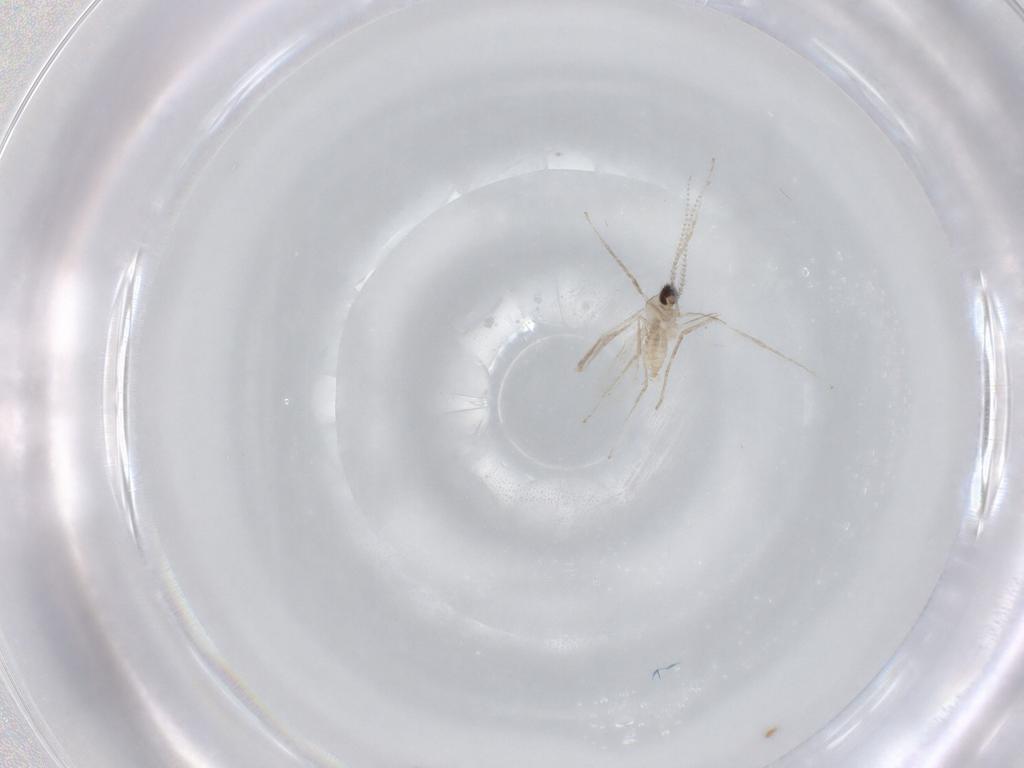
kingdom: Animalia
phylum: Arthropoda
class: Insecta
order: Diptera
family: Cecidomyiidae
